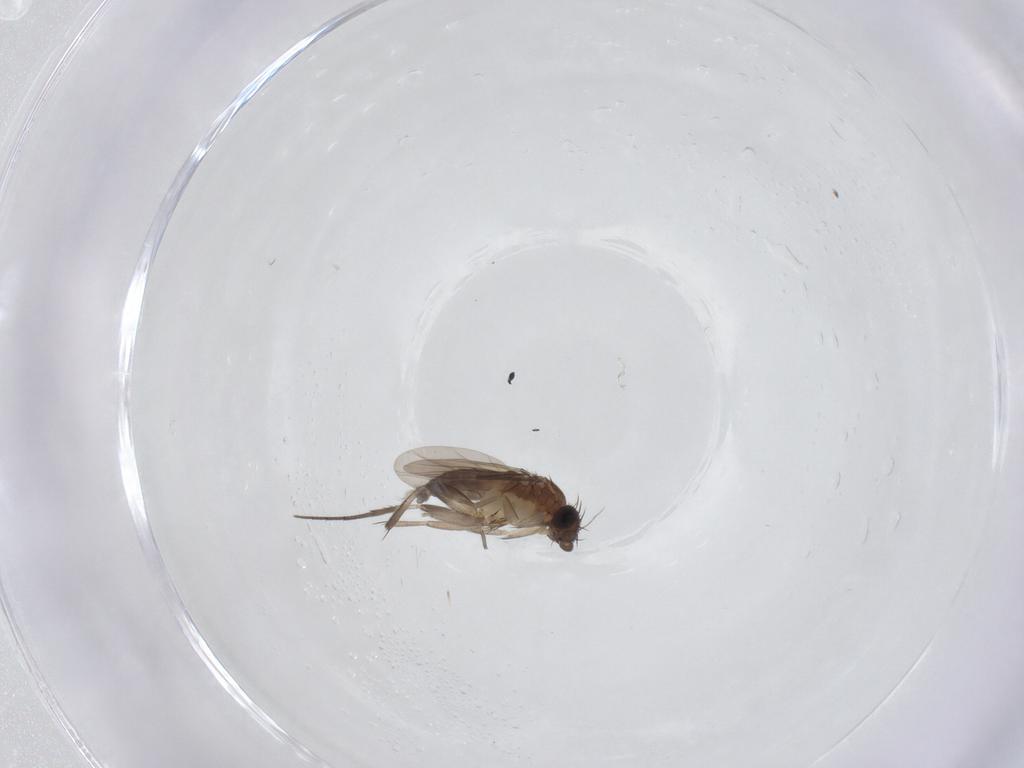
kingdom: Animalia
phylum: Arthropoda
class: Insecta
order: Diptera
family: Phoridae
